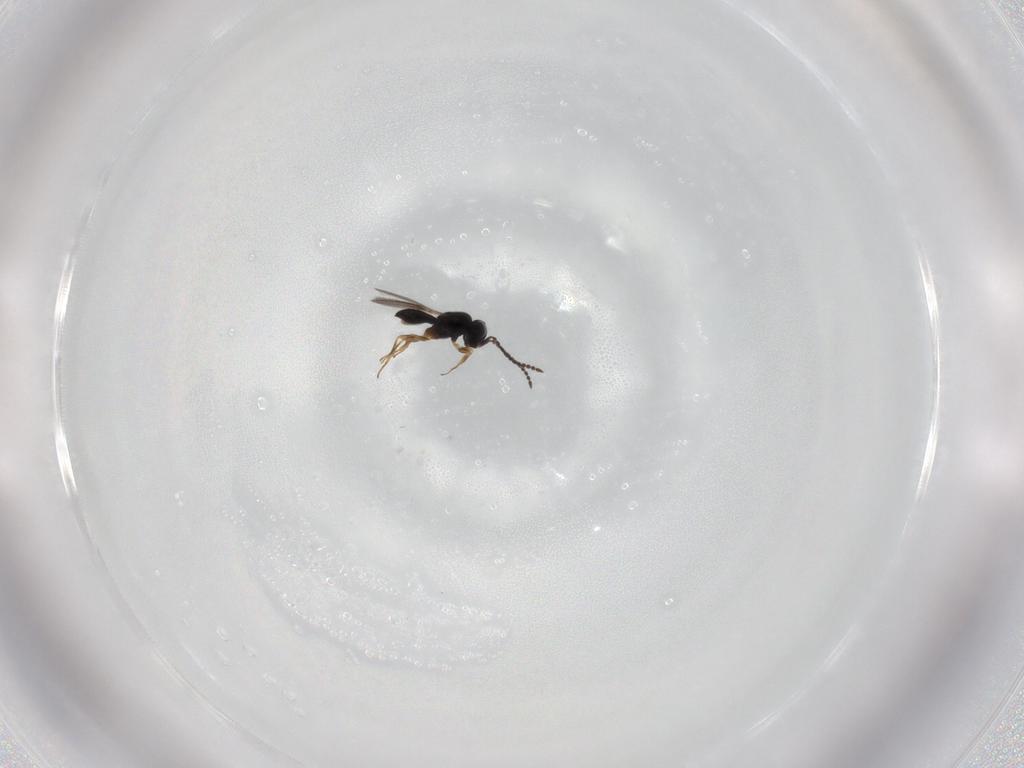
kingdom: Animalia
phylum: Arthropoda
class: Insecta
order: Hymenoptera
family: Scelionidae
